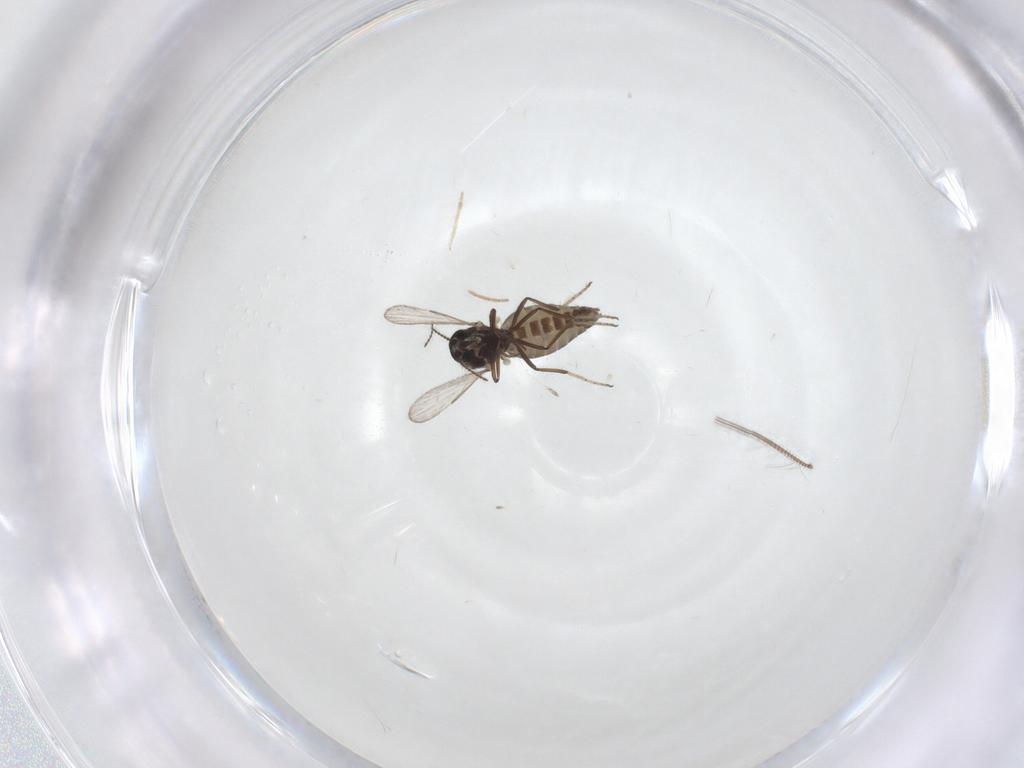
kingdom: Animalia
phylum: Arthropoda
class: Insecta
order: Diptera
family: Ceratopogonidae
